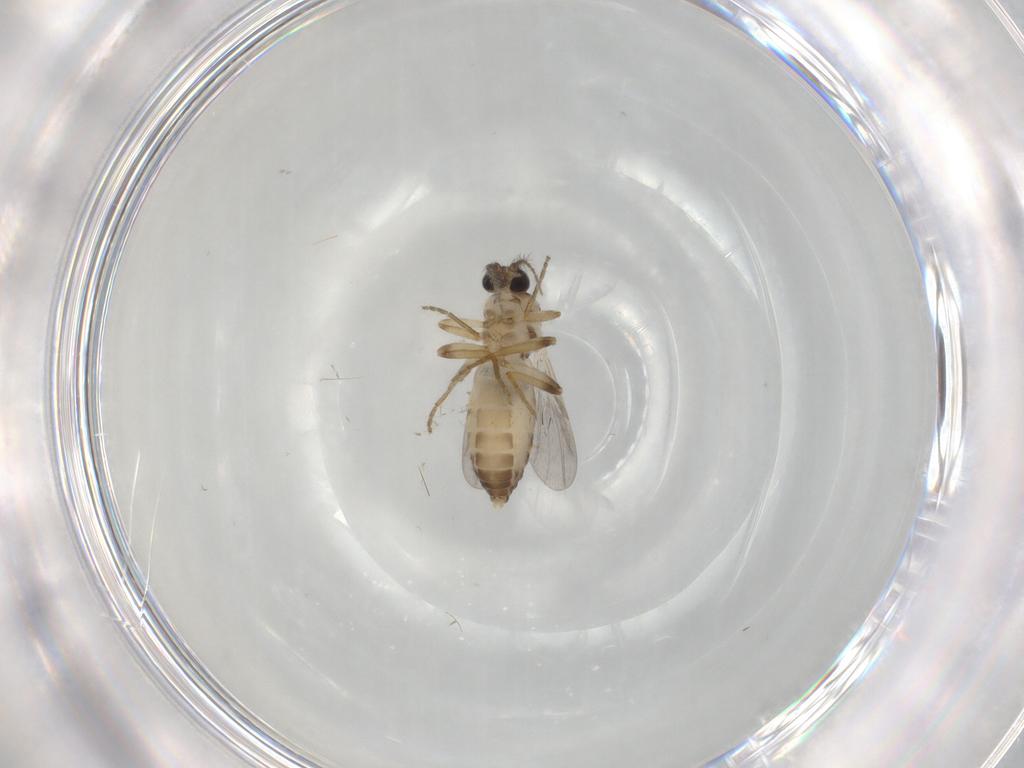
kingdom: Animalia
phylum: Arthropoda
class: Insecta
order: Diptera
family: Ceratopogonidae
